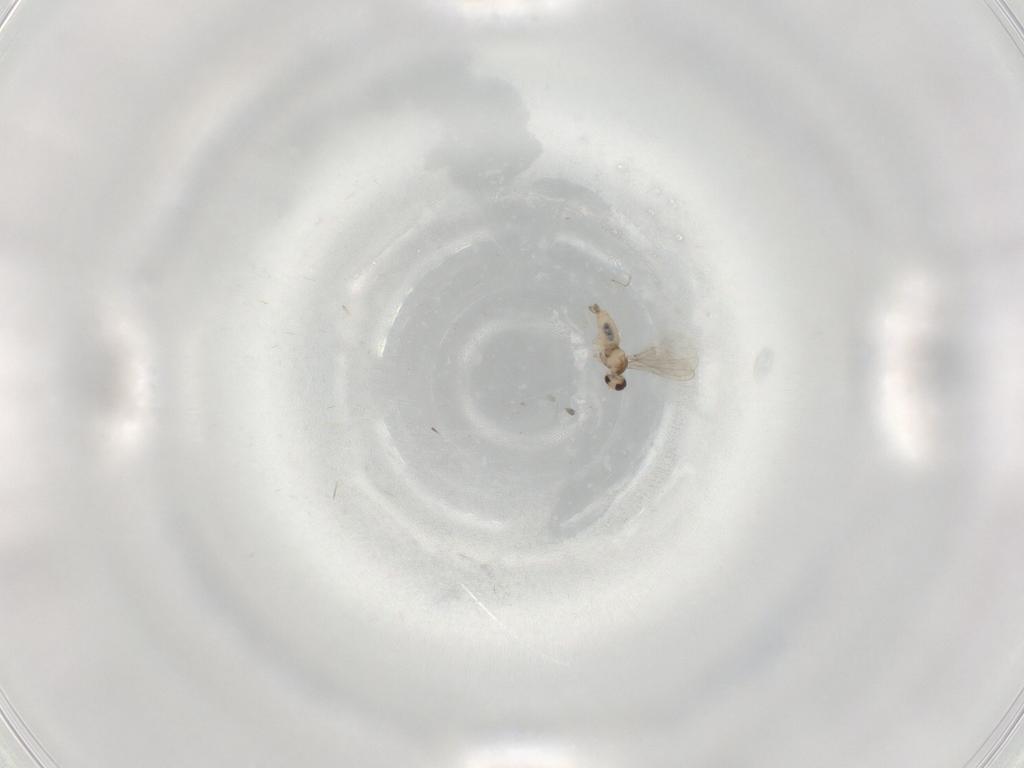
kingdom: Animalia
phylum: Arthropoda
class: Insecta
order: Diptera
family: Cecidomyiidae
